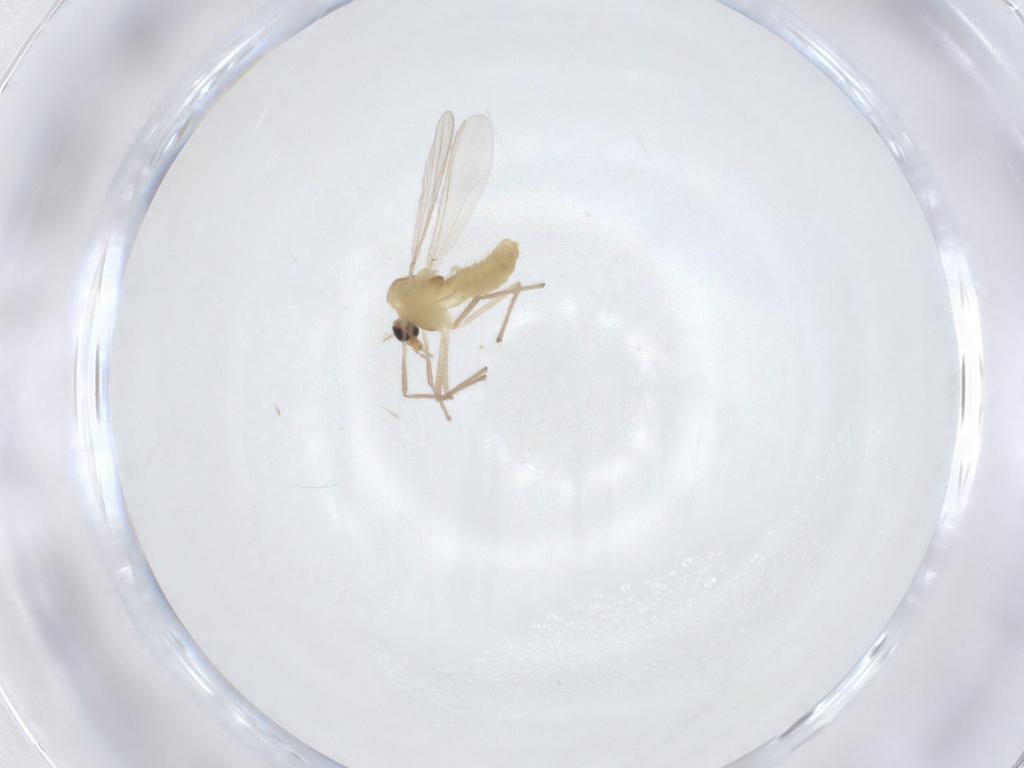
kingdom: Animalia
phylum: Arthropoda
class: Insecta
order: Diptera
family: Chironomidae
